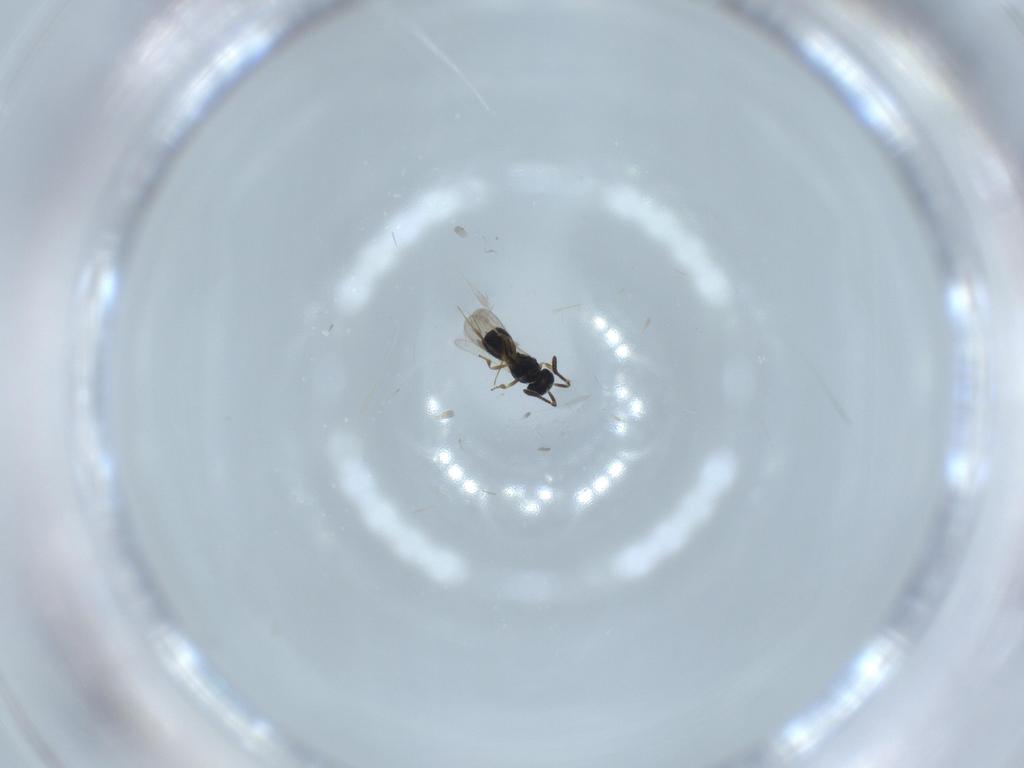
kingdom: Animalia
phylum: Arthropoda
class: Insecta
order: Hymenoptera
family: Scelionidae
